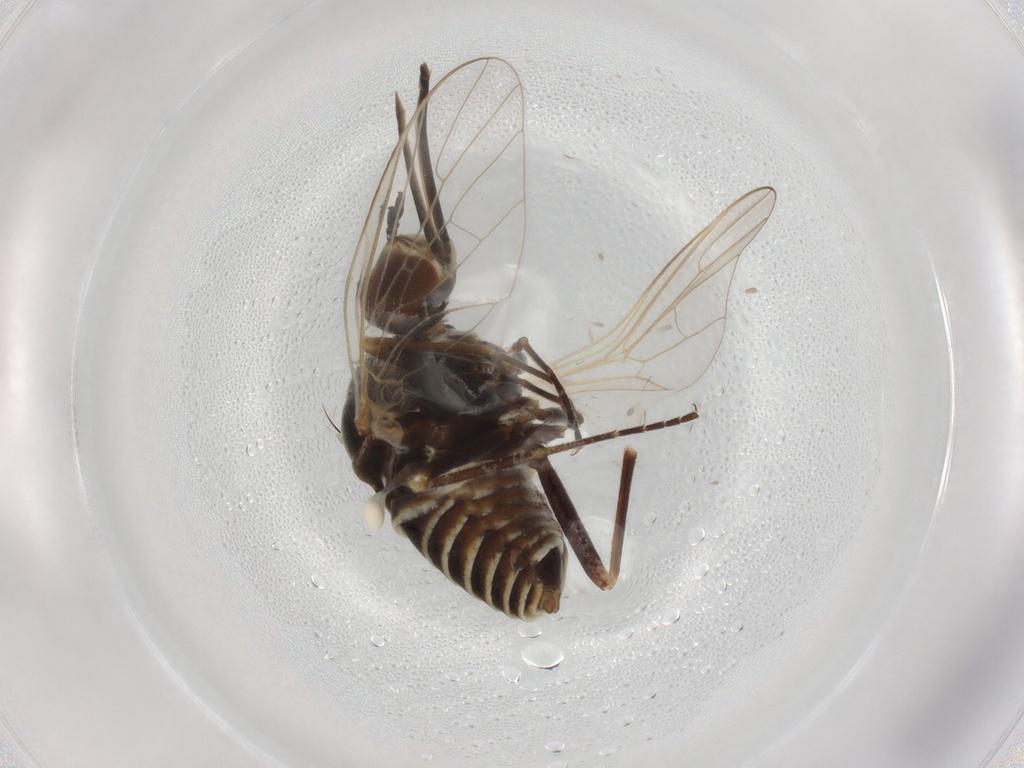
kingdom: Animalia
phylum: Arthropoda
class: Insecta
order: Diptera
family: Bombyliidae
